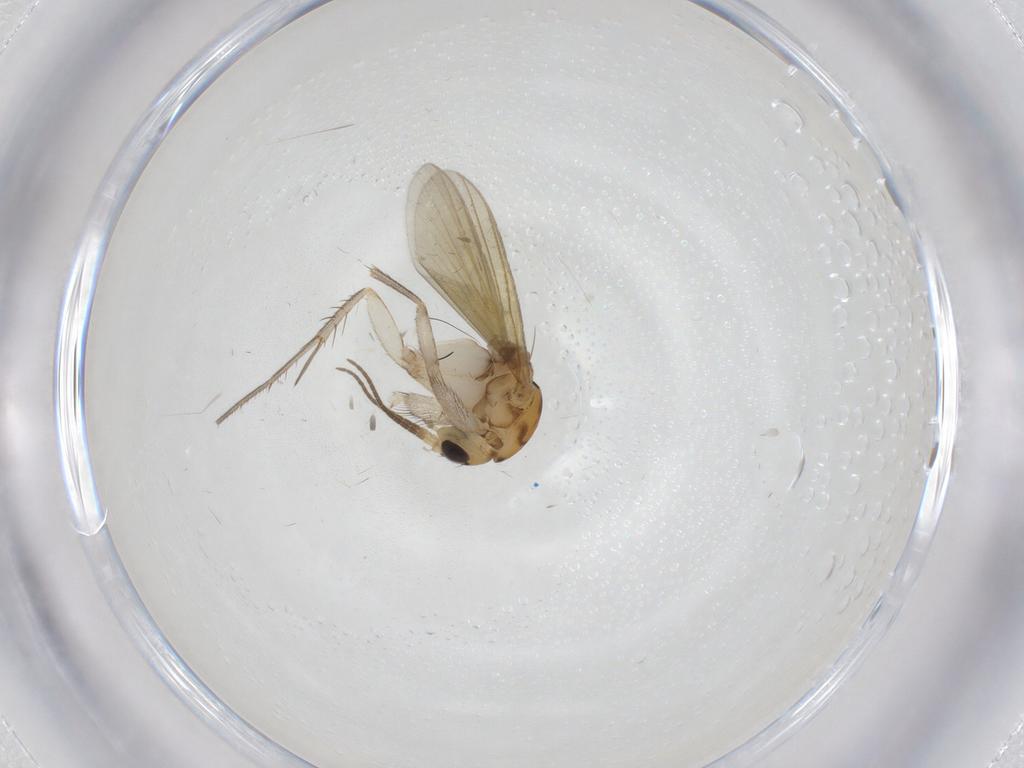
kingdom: Animalia
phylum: Arthropoda
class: Insecta
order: Diptera
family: Mycetophilidae
